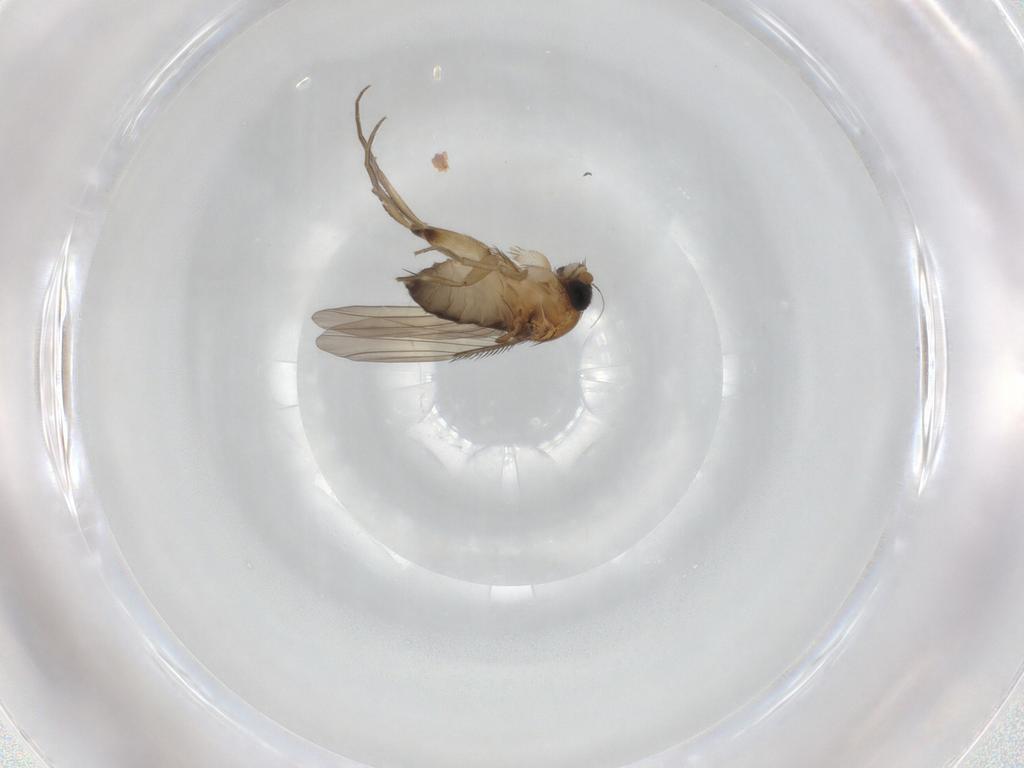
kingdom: Animalia
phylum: Arthropoda
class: Insecta
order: Diptera
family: Phoridae
